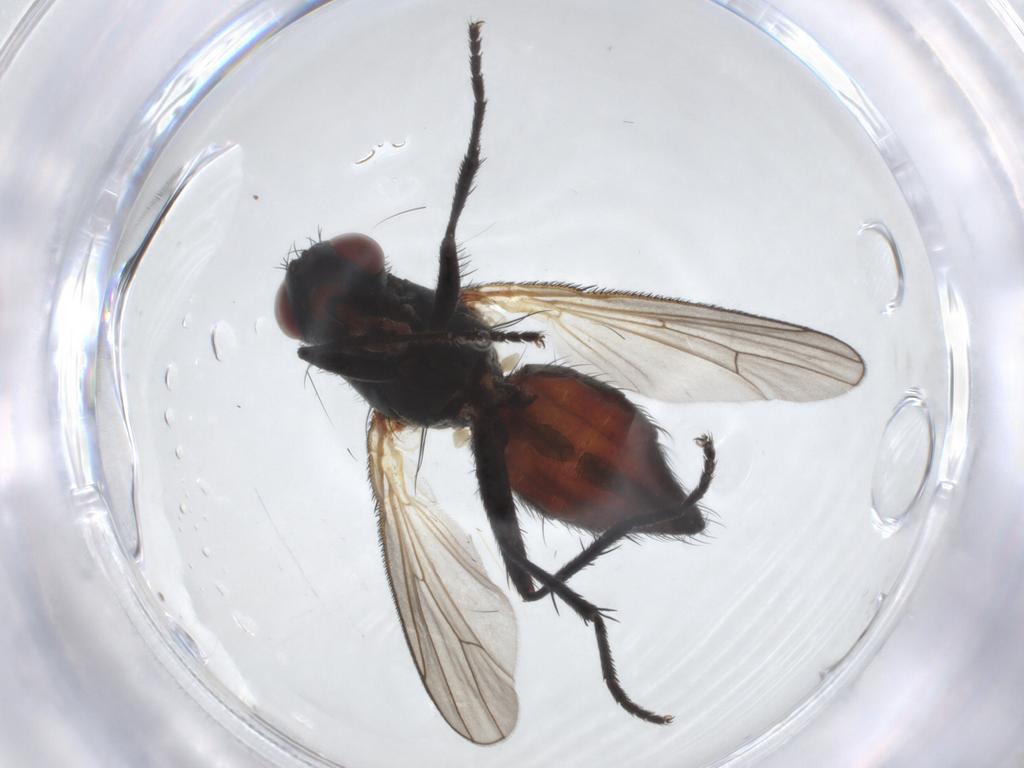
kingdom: Animalia
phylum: Arthropoda
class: Insecta
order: Diptera
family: Anthomyiidae
